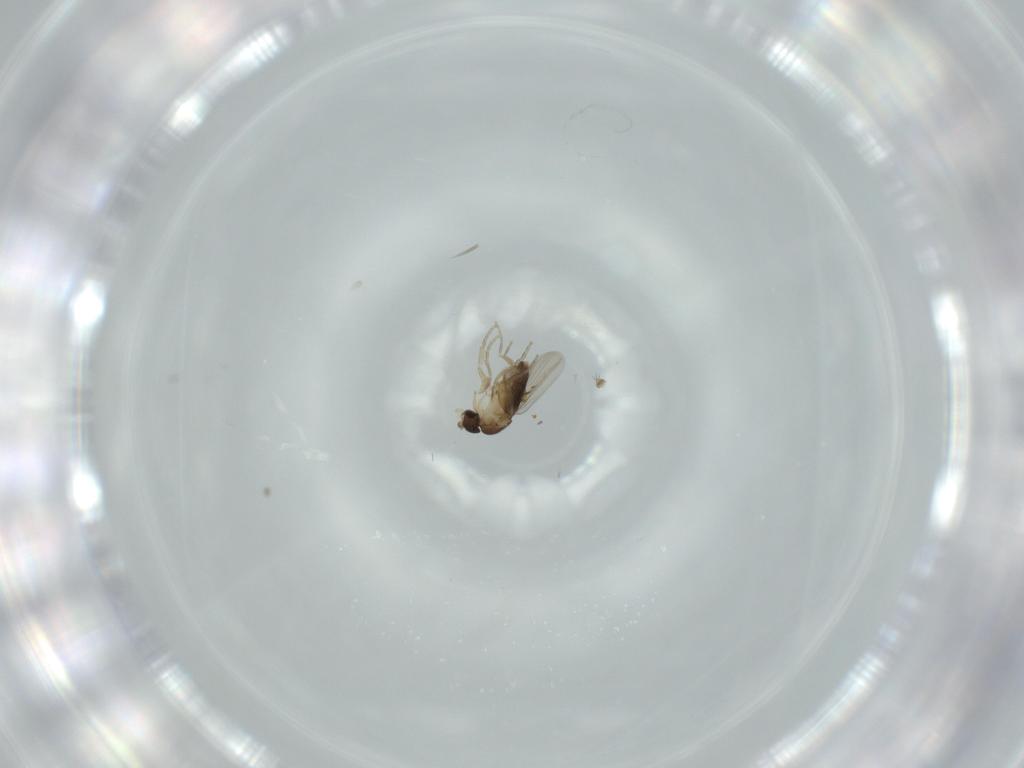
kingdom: Animalia
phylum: Arthropoda
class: Insecta
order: Diptera
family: Phoridae
